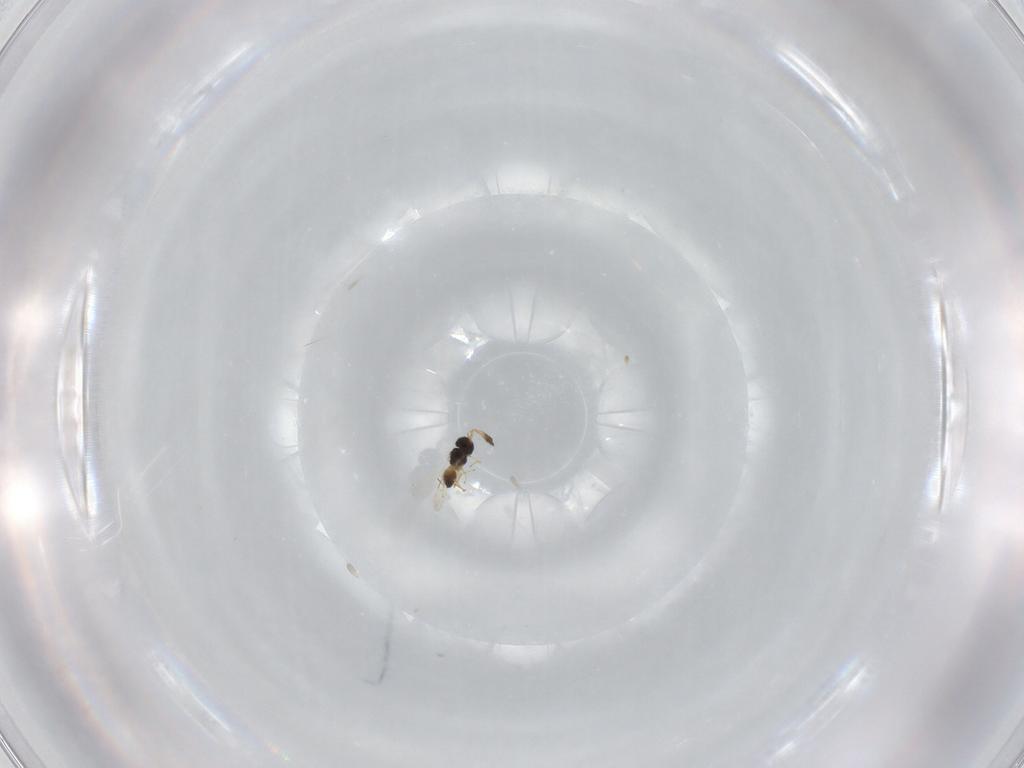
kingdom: Animalia
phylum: Arthropoda
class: Insecta
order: Hymenoptera
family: Scelionidae
